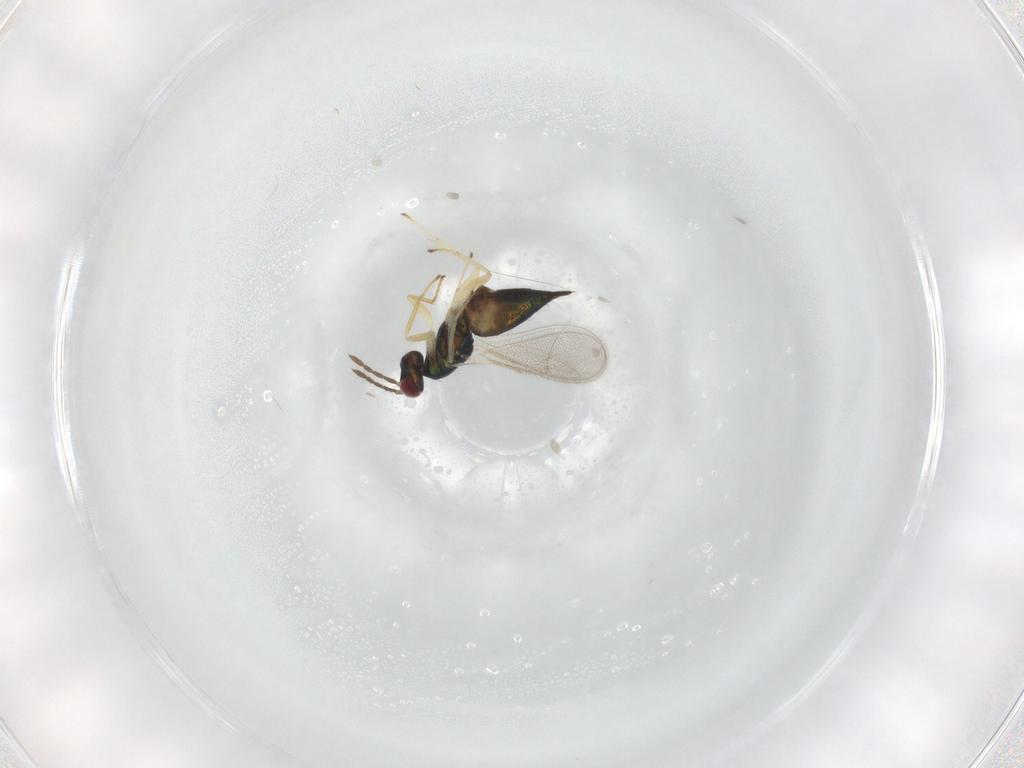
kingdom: Animalia
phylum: Arthropoda
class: Insecta
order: Hymenoptera
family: Eulophidae
